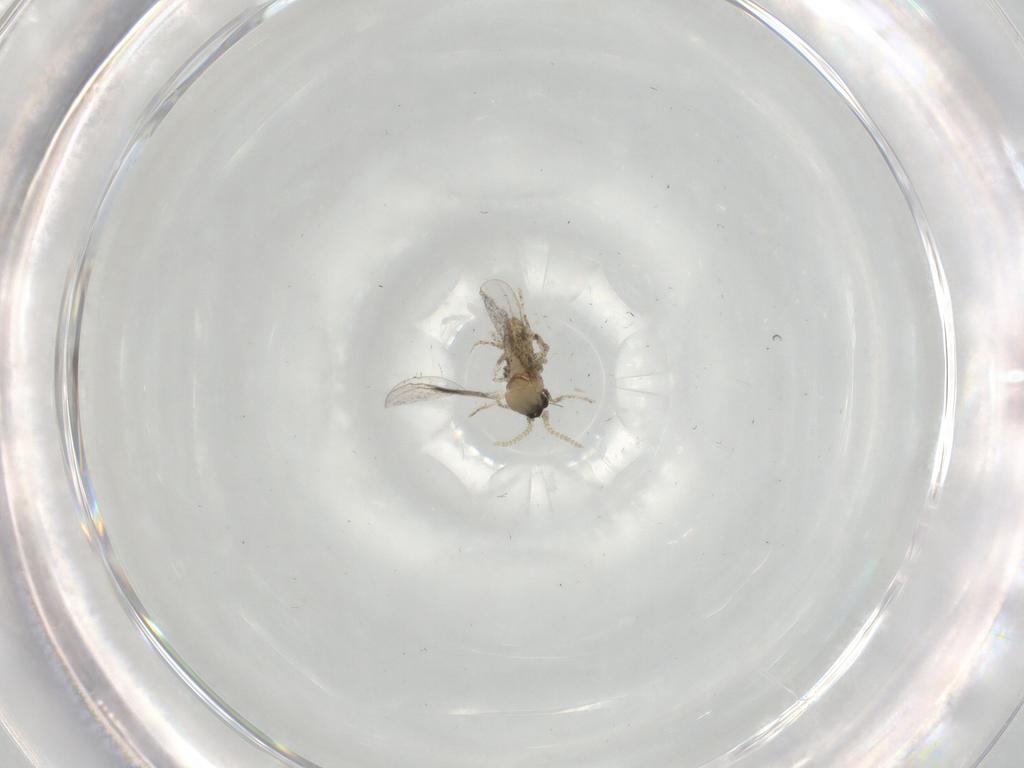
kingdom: Animalia
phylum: Arthropoda
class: Insecta
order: Diptera
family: Cecidomyiidae
